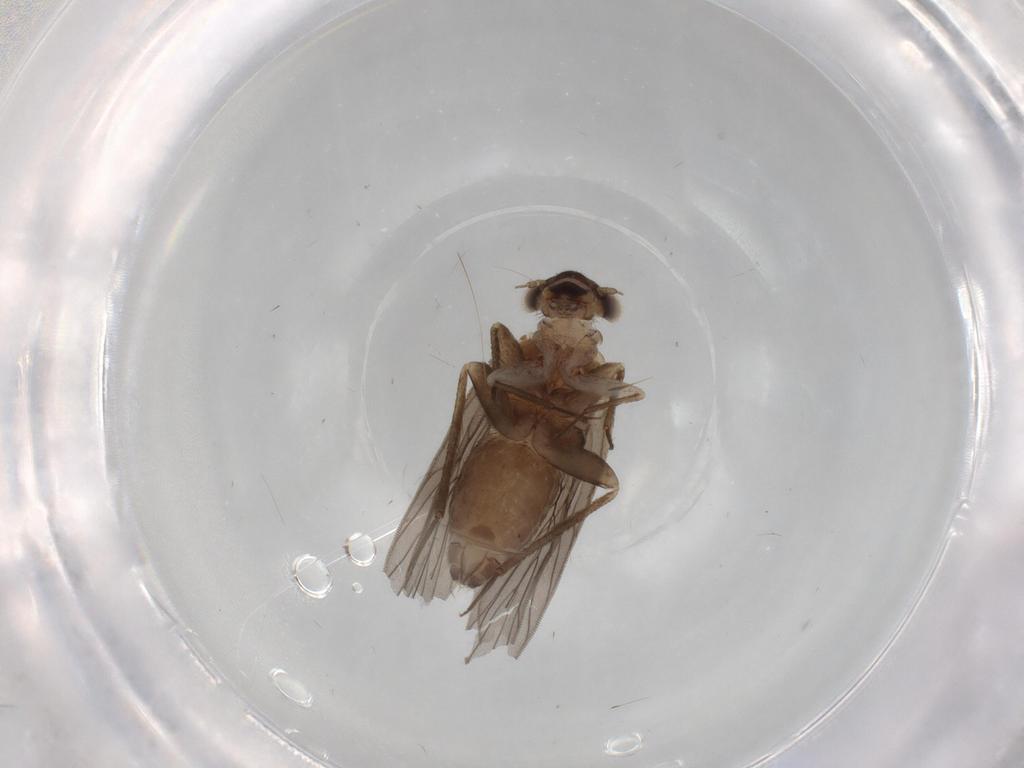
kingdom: Animalia
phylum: Arthropoda
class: Insecta
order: Psocodea
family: Lepidopsocidae
